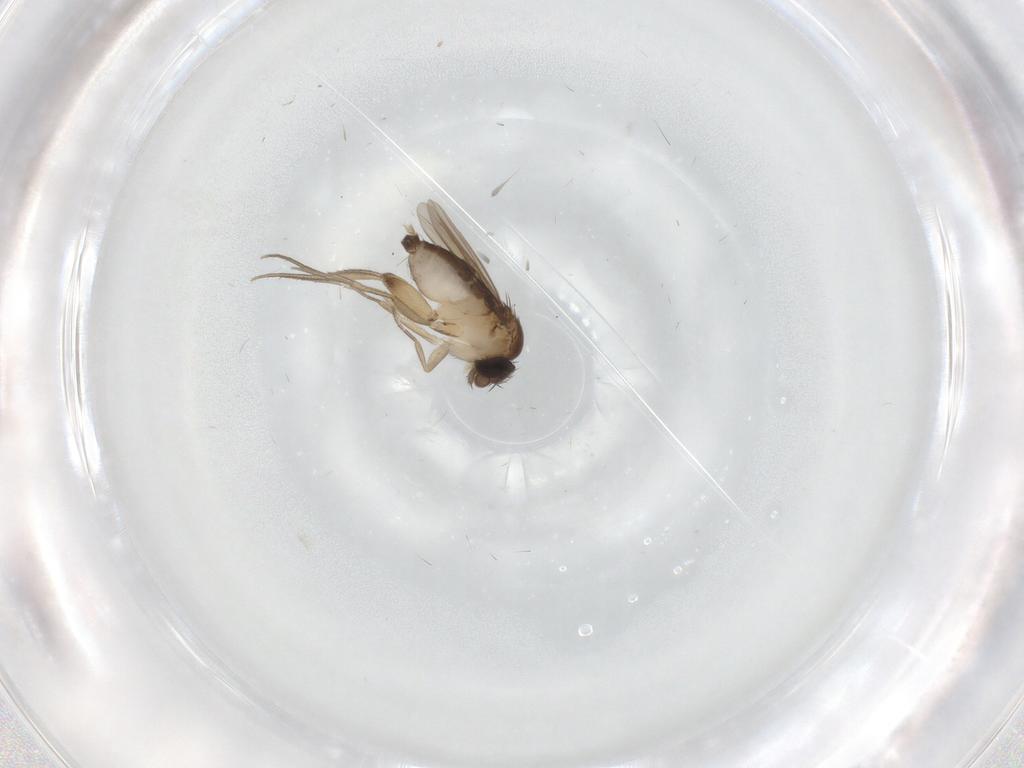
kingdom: Animalia
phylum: Arthropoda
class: Insecta
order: Diptera
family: Phoridae
